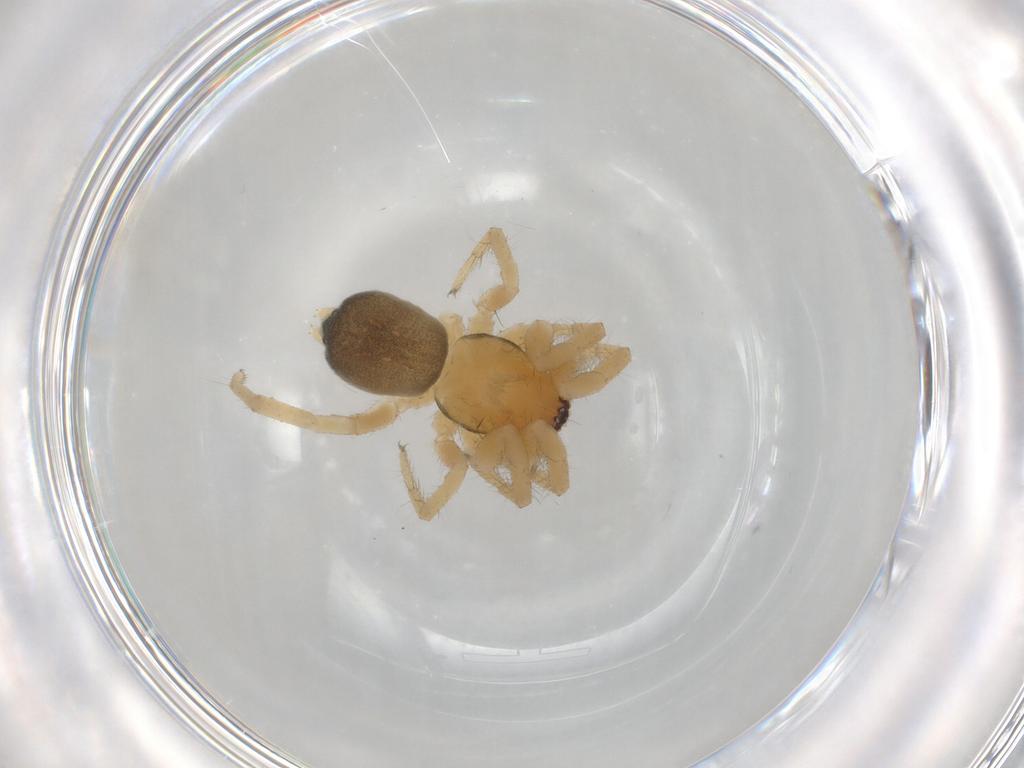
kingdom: Animalia
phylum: Arthropoda
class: Arachnida
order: Araneae
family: Gnaphosidae
